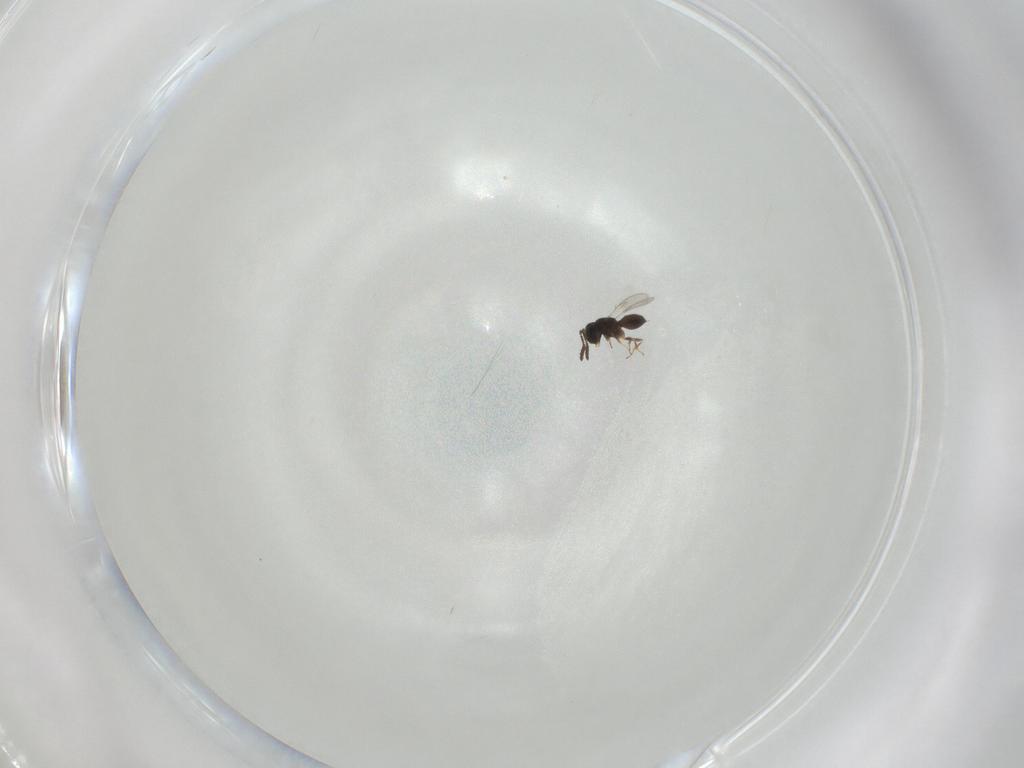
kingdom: Animalia
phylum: Arthropoda
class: Insecta
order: Hymenoptera
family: Scelionidae
